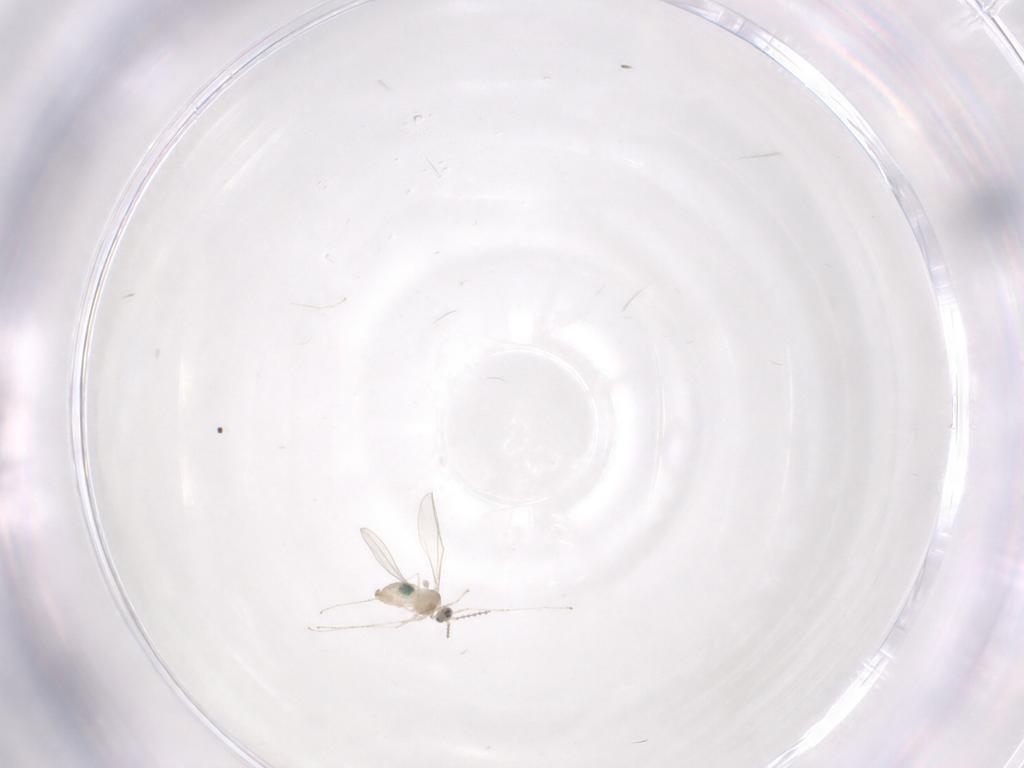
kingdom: Animalia
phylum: Arthropoda
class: Insecta
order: Diptera
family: Cecidomyiidae
